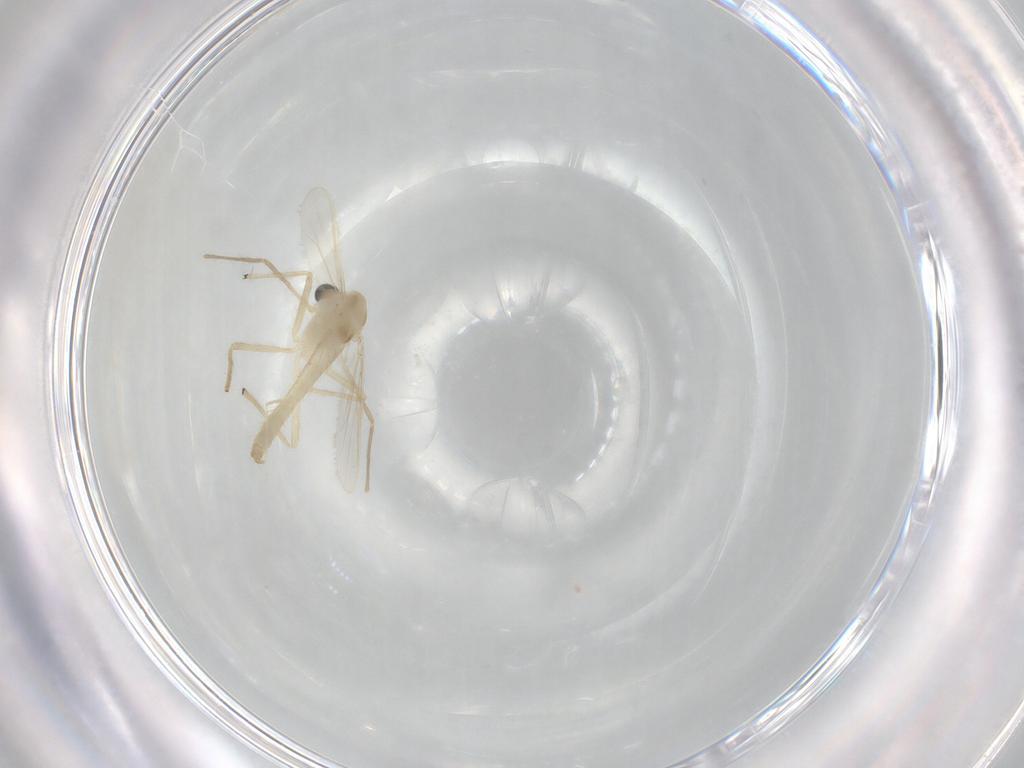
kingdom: Animalia
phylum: Arthropoda
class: Insecta
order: Diptera
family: Chironomidae
